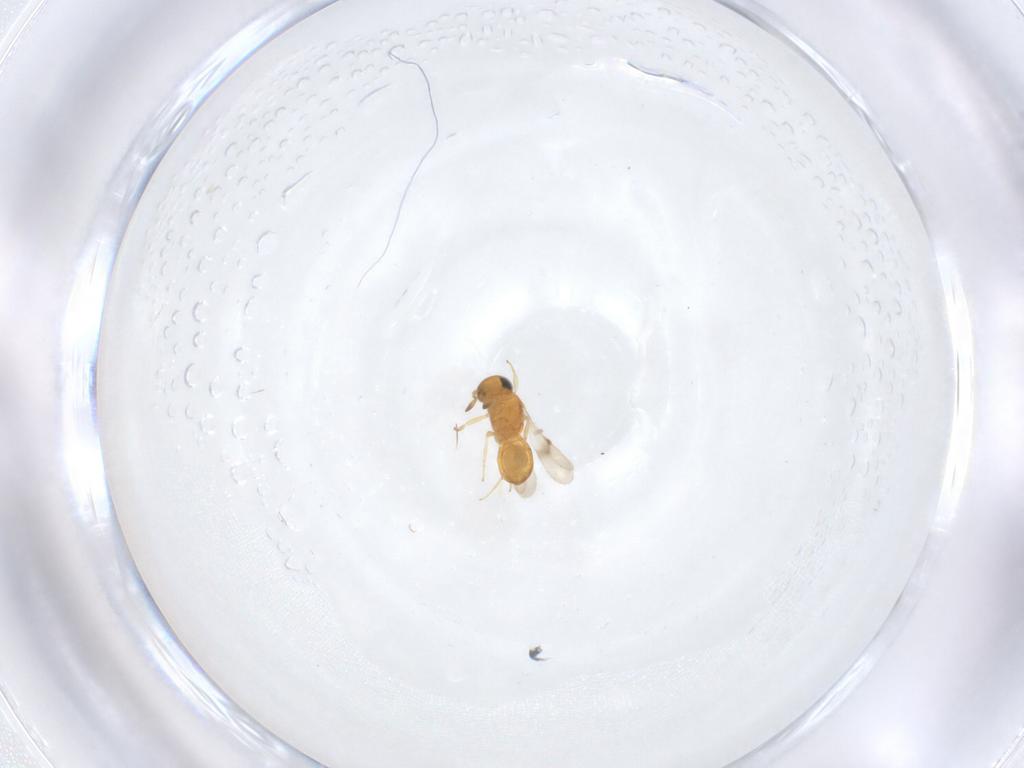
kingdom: Animalia
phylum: Arthropoda
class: Insecta
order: Hymenoptera
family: Scelionidae
